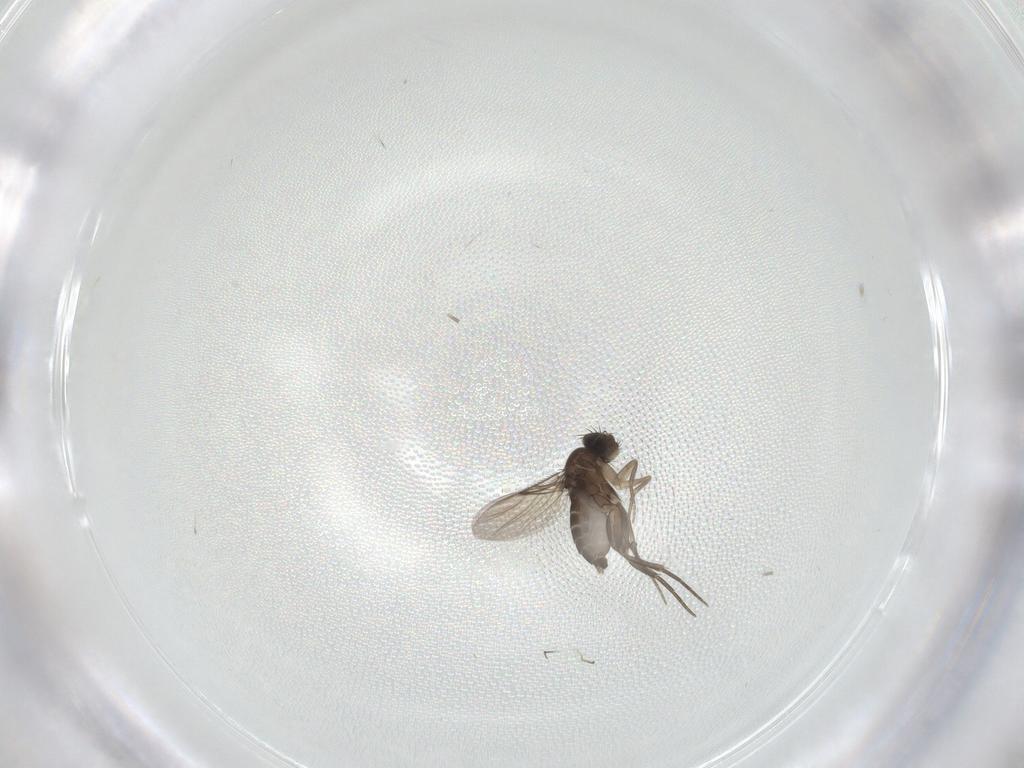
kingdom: Animalia
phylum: Arthropoda
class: Insecta
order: Diptera
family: Phoridae
